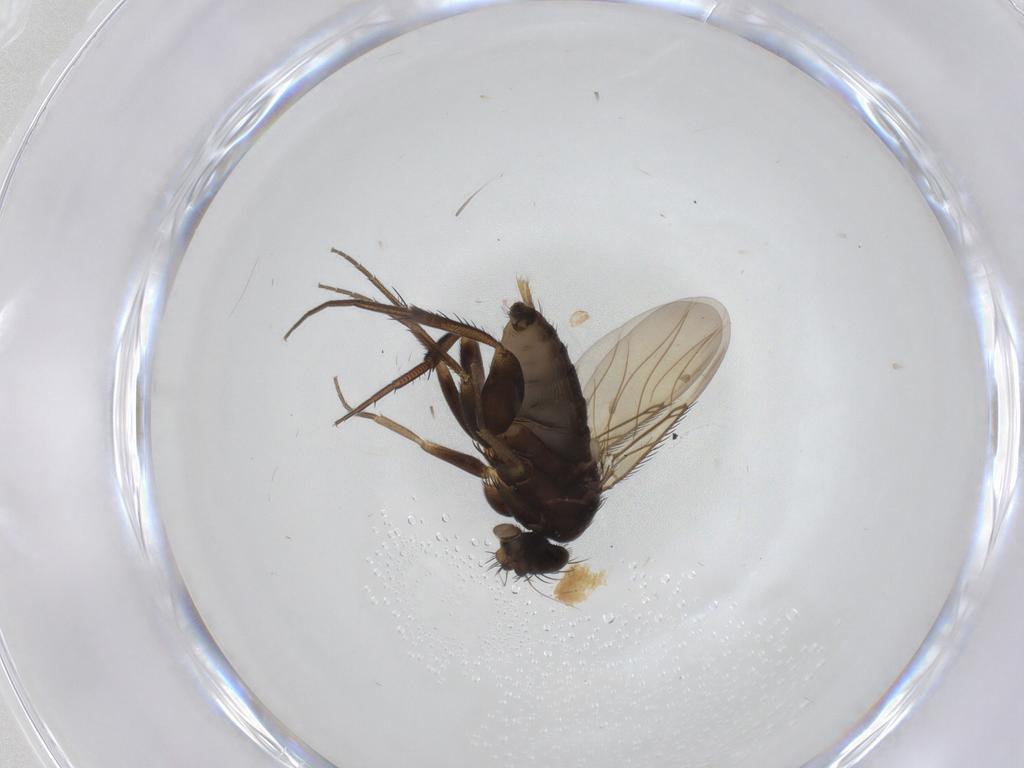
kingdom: Animalia
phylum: Arthropoda
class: Insecta
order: Diptera
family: Phoridae
